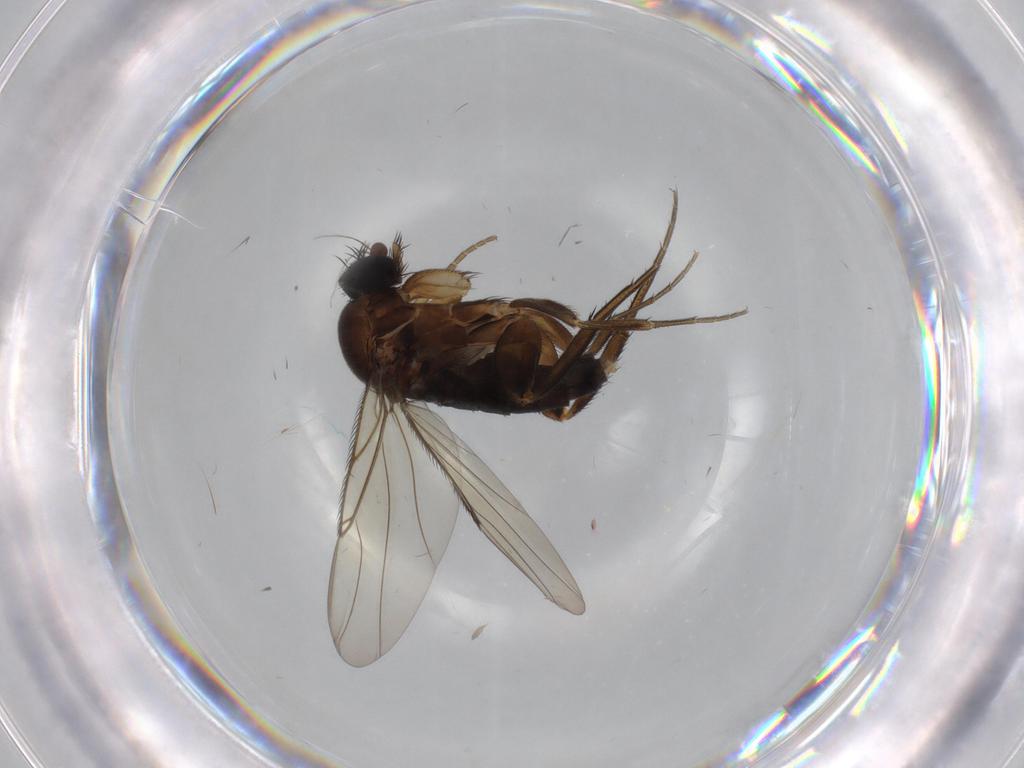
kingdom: Animalia
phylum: Arthropoda
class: Insecta
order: Diptera
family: Phoridae
